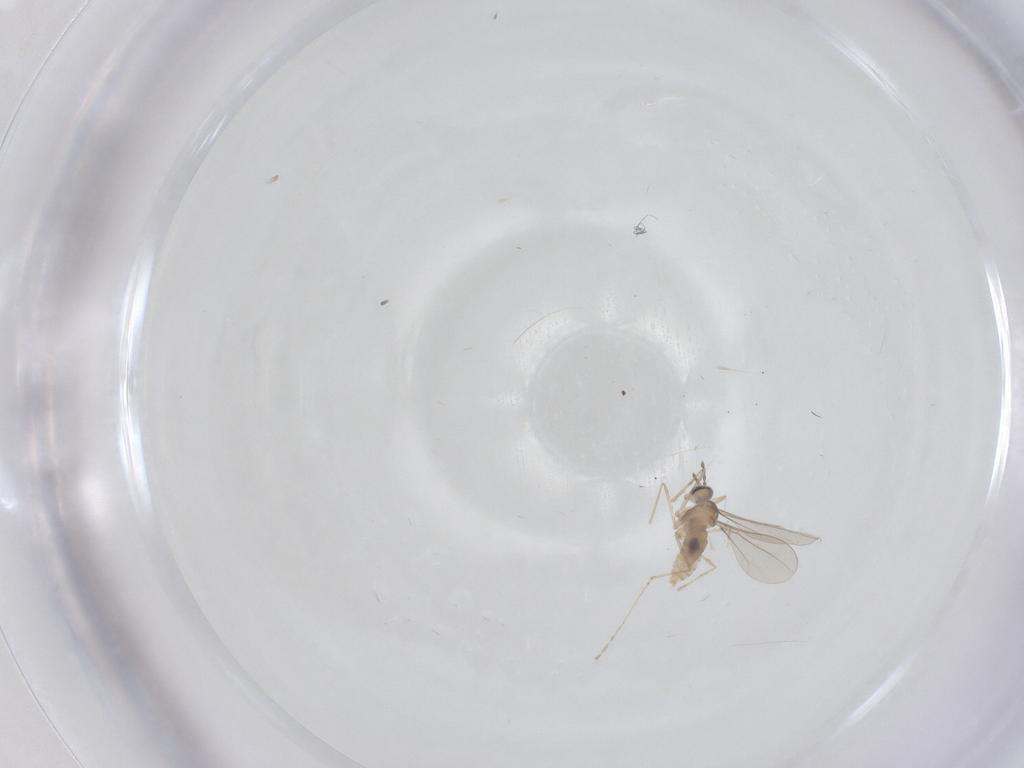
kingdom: Animalia
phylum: Arthropoda
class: Insecta
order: Diptera
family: Cecidomyiidae
